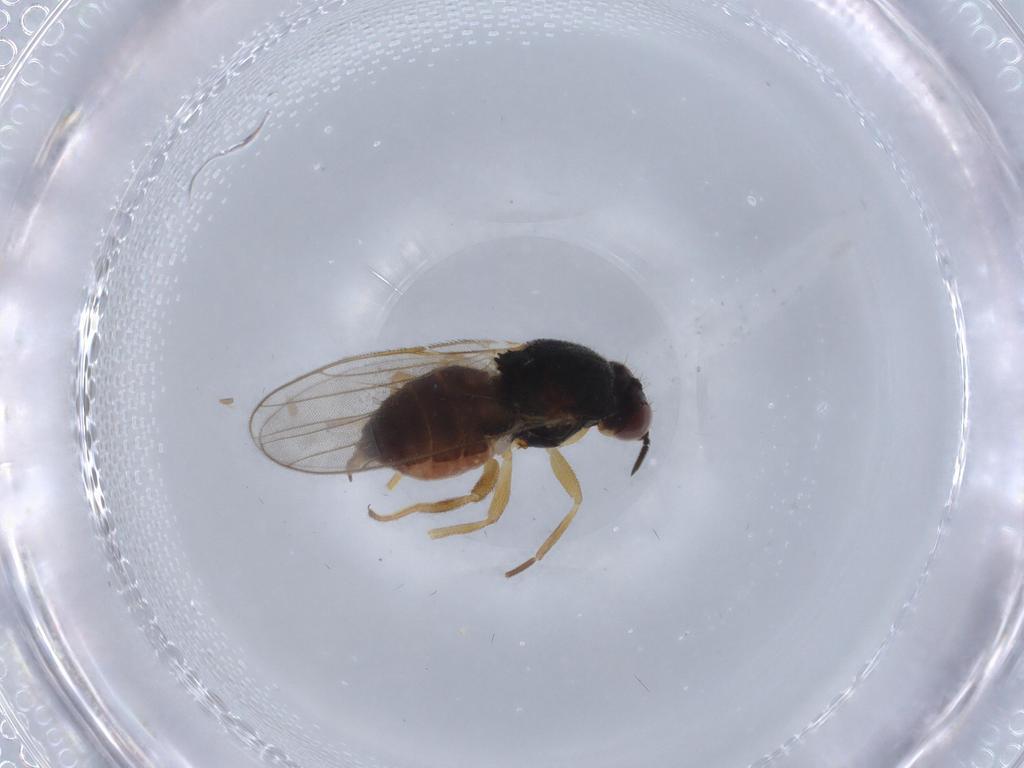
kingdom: Animalia
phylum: Arthropoda
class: Insecta
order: Diptera
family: Chloropidae
